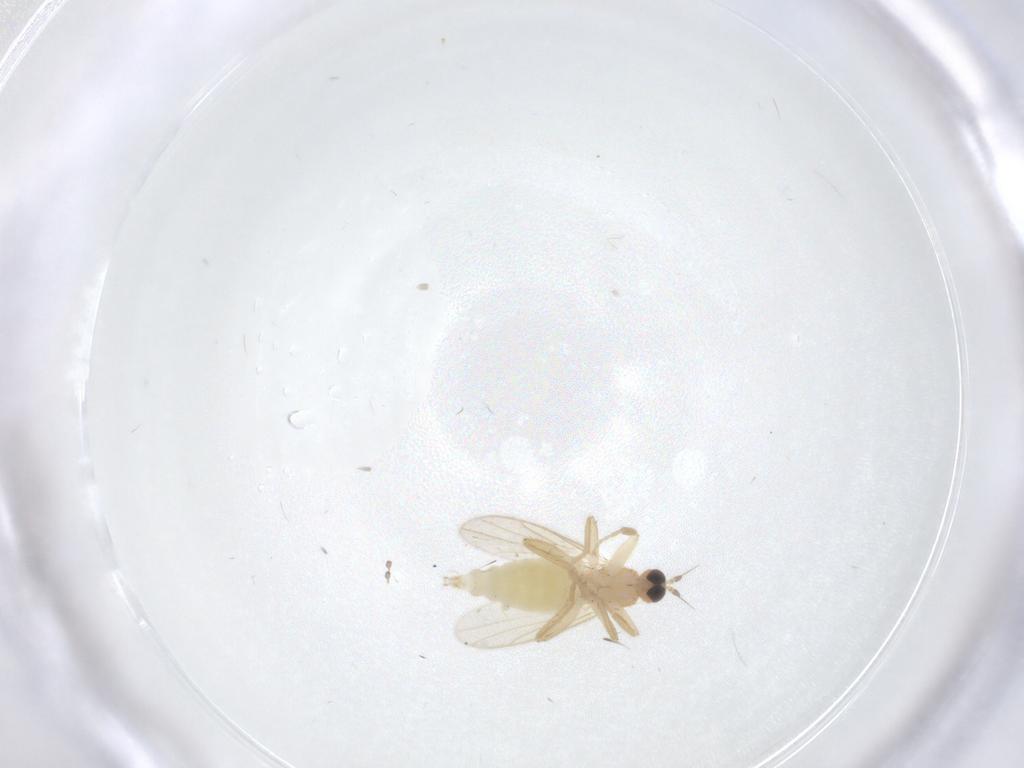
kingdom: Animalia
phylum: Arthropoda
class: Insecta
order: Diptera
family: Hybotidae
